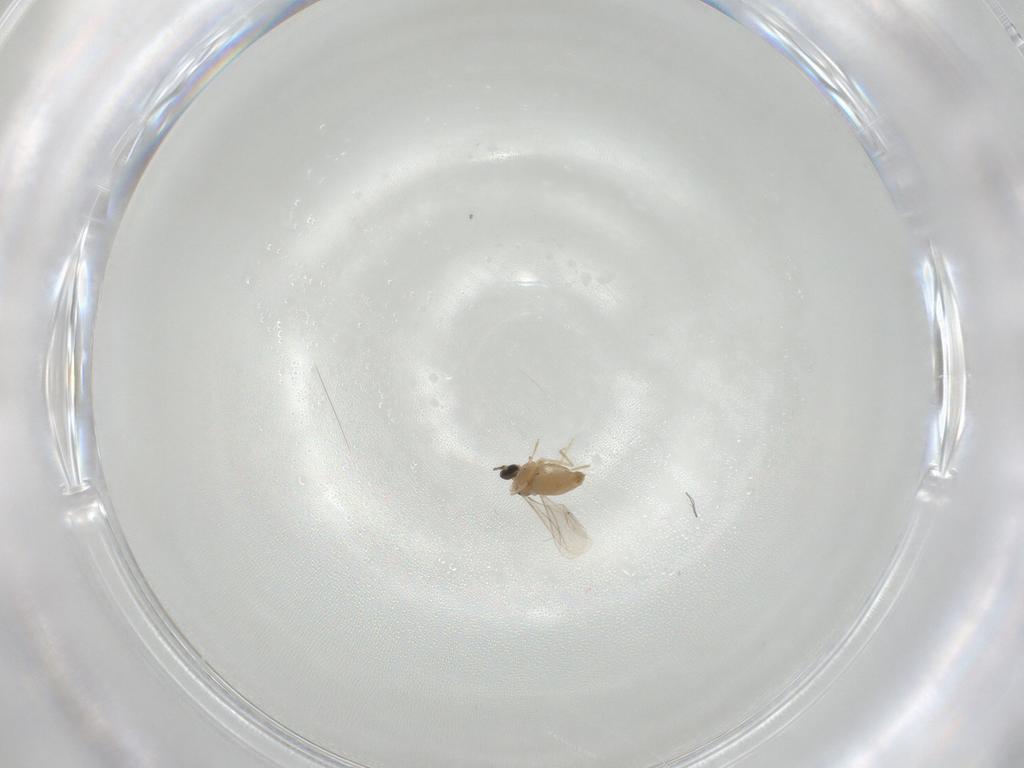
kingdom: Animalia
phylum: Arthropoda
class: Insecta
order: Diptera
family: Cecidomyiidae
